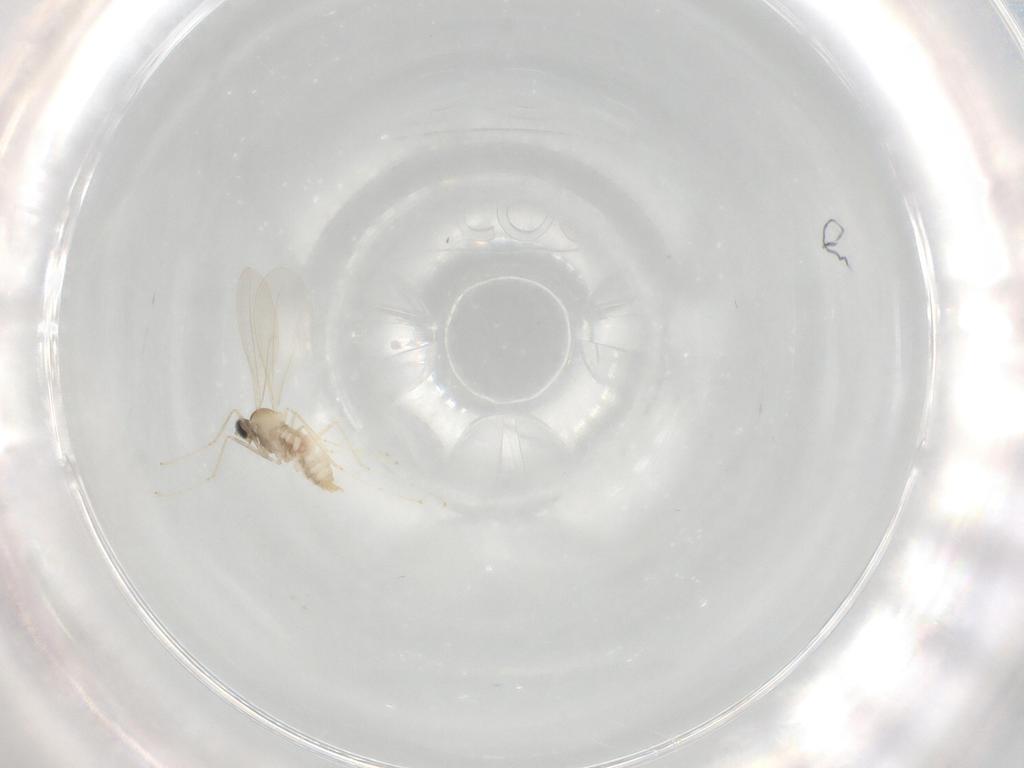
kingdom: Animalia
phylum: Arthropoda
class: Insecta
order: Diptera
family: Cecidomyiidae
